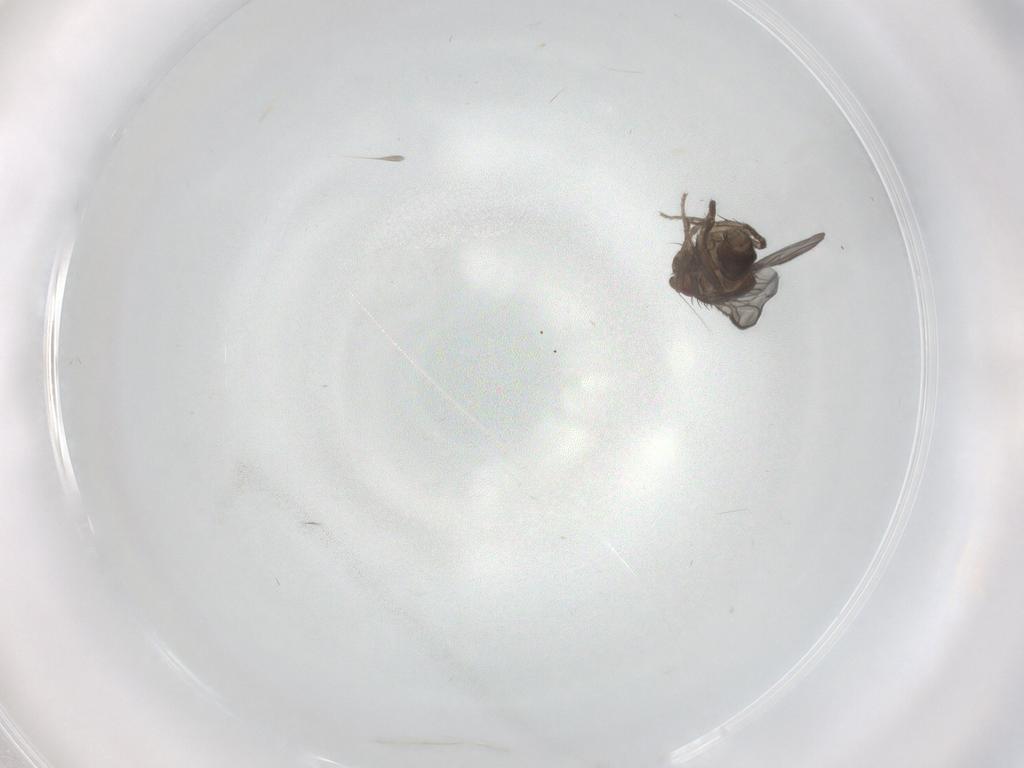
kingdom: Animalia
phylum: Arthropoda
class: Insecta
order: Diptera
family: Sphaeroceridae
